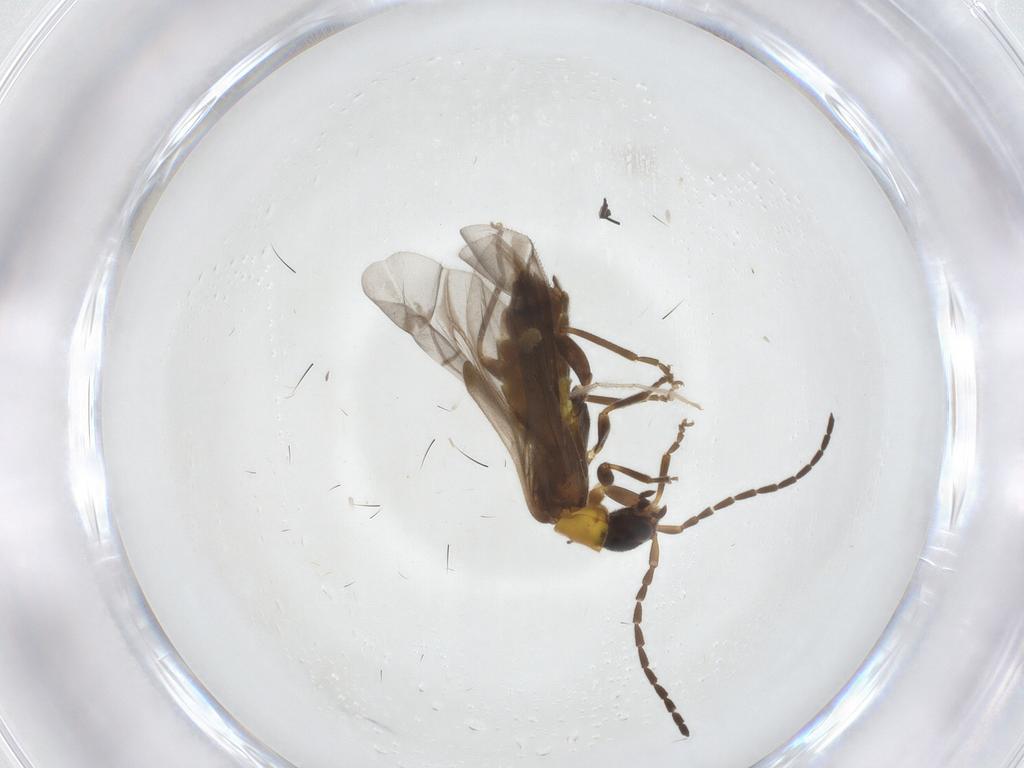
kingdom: Animalia
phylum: Arthropoda
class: Insecta
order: Coleoptera
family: Cantharidae
